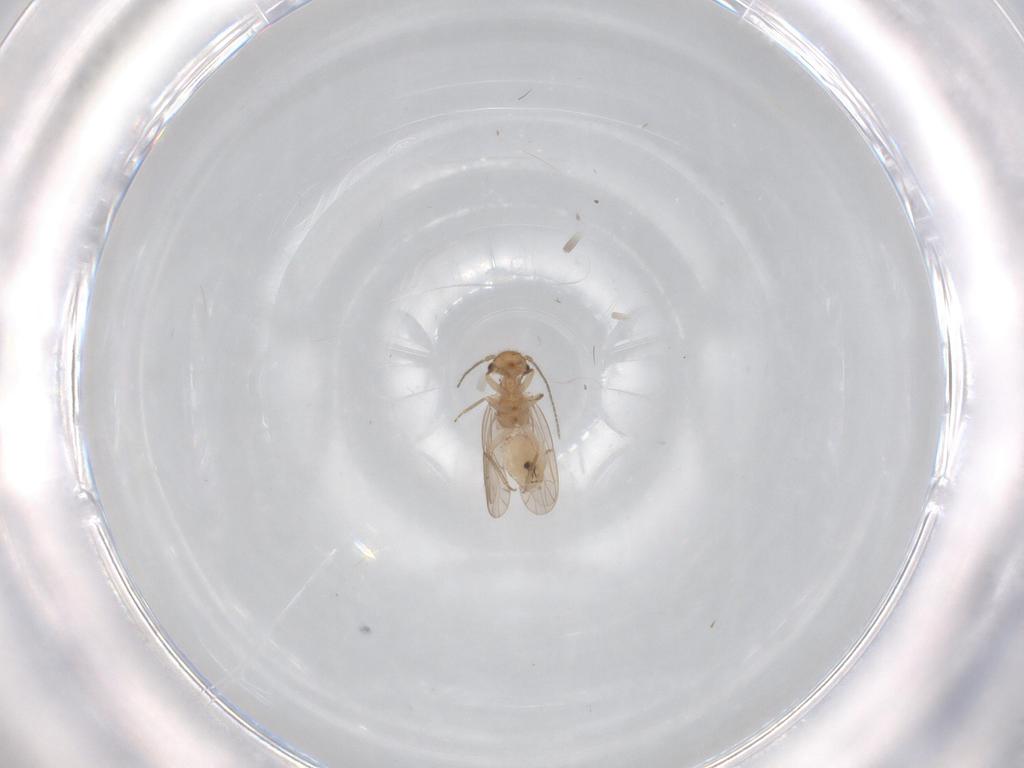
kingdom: Animalia
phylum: Arthropoda
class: Insecta
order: Psocodea
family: Ectopsocidae
